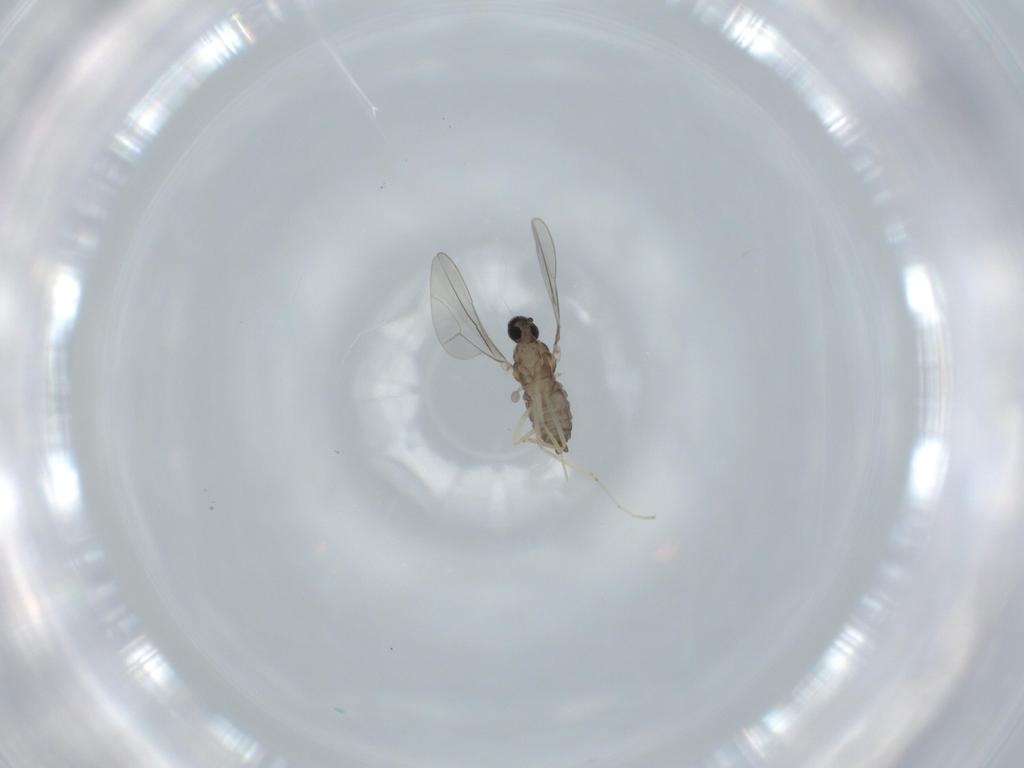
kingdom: Animalia
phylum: Arthropoda
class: Insecta
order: Diptera
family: Cecidomyiidae
